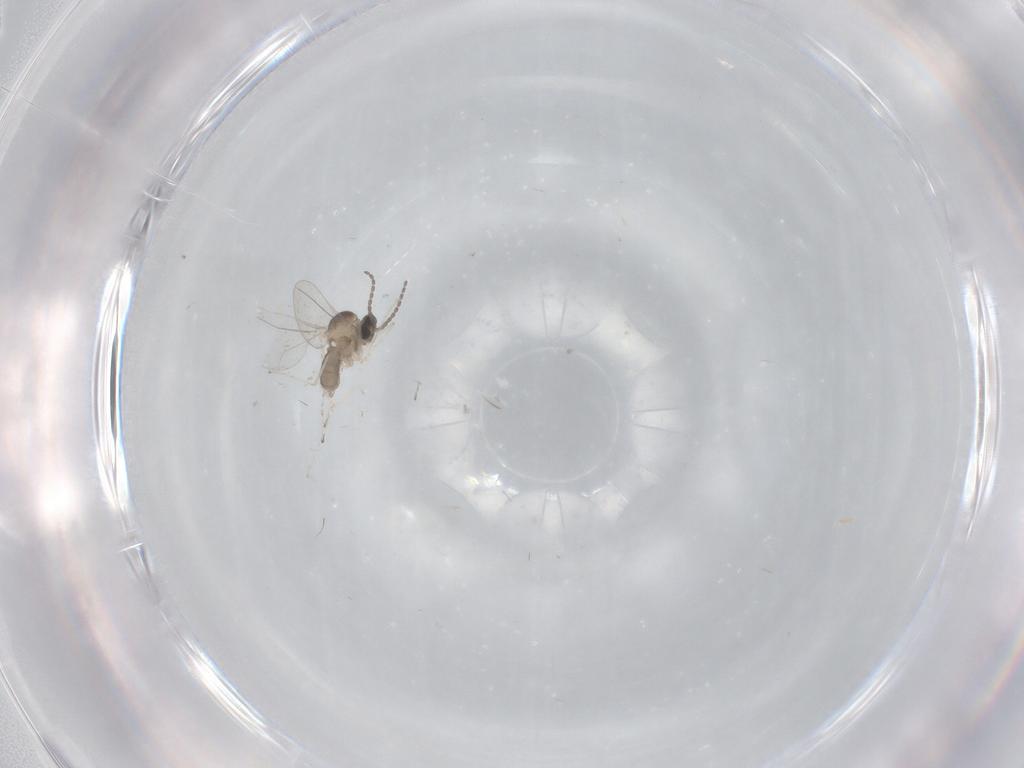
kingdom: Animalia
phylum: Arthropoda
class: Insecta
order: Diptera
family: Cecidomyiidae
